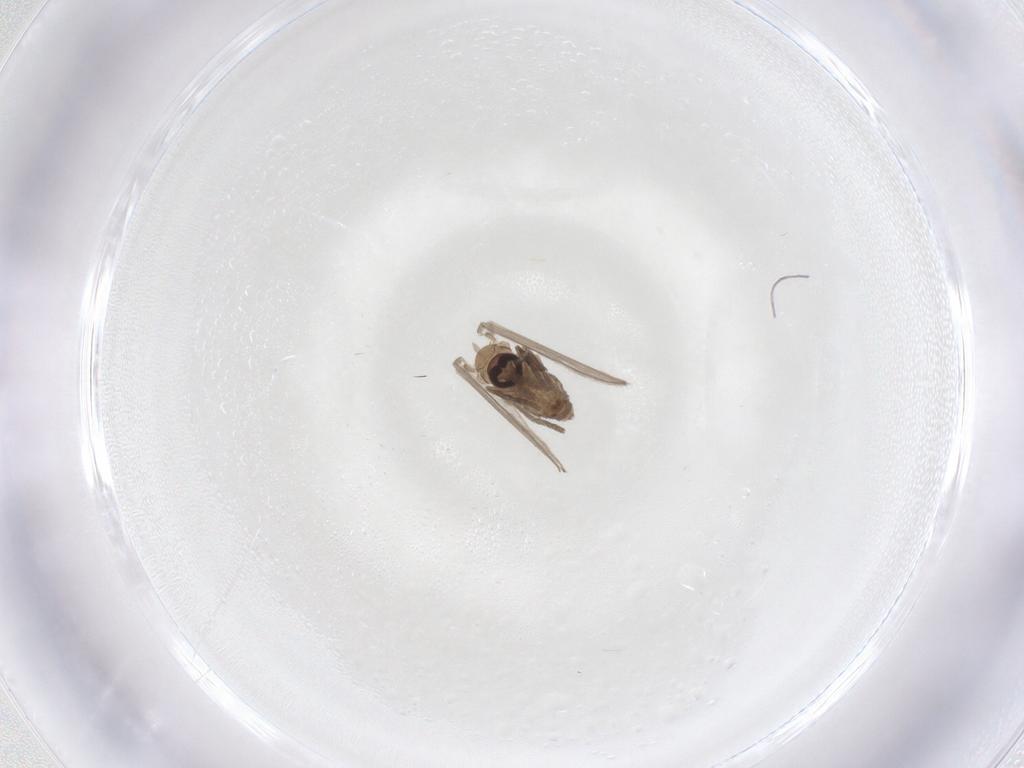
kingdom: Animalia
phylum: Arthropoda
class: Insecta
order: Diptera
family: Psychodidae
